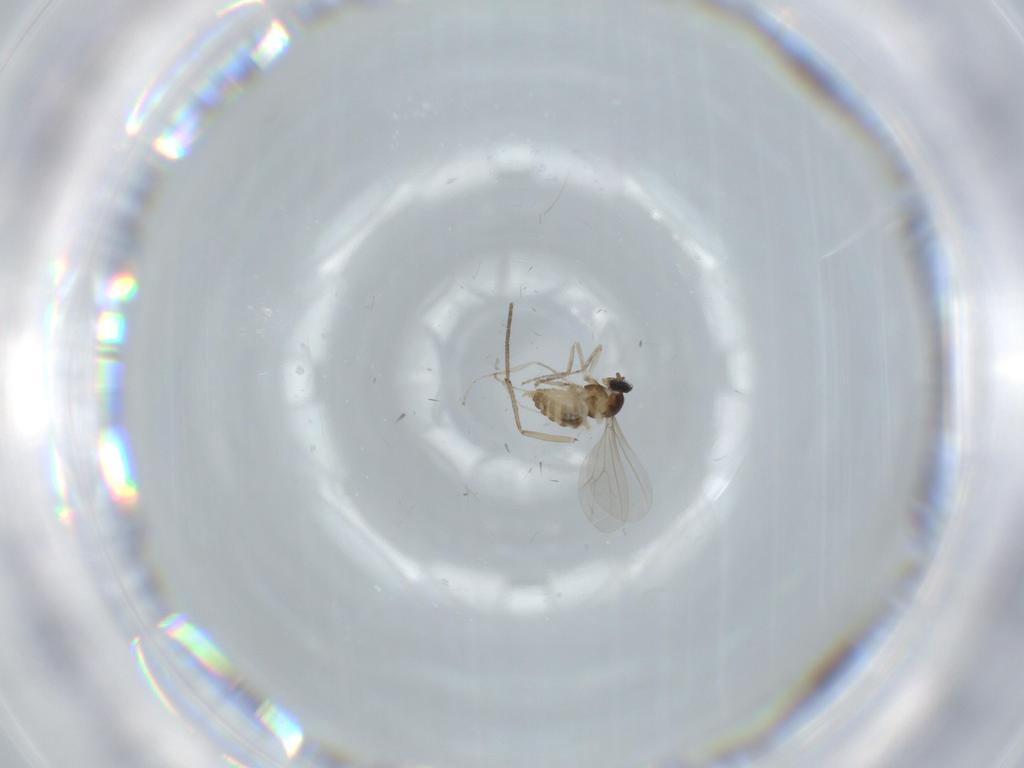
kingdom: Animalia
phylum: Arthropoda
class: Insecta
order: Diptera
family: Cecidomyiidae
